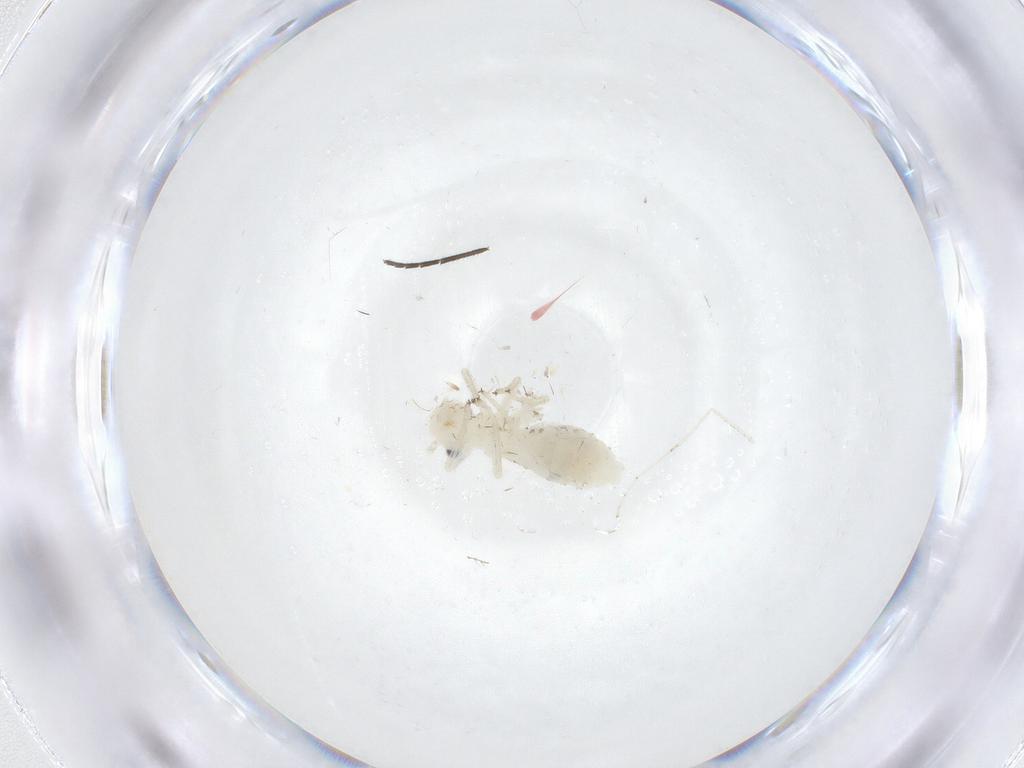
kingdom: Animalia
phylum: Arthropoda
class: Insecta
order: Psocodea
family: Caeciliusidae
